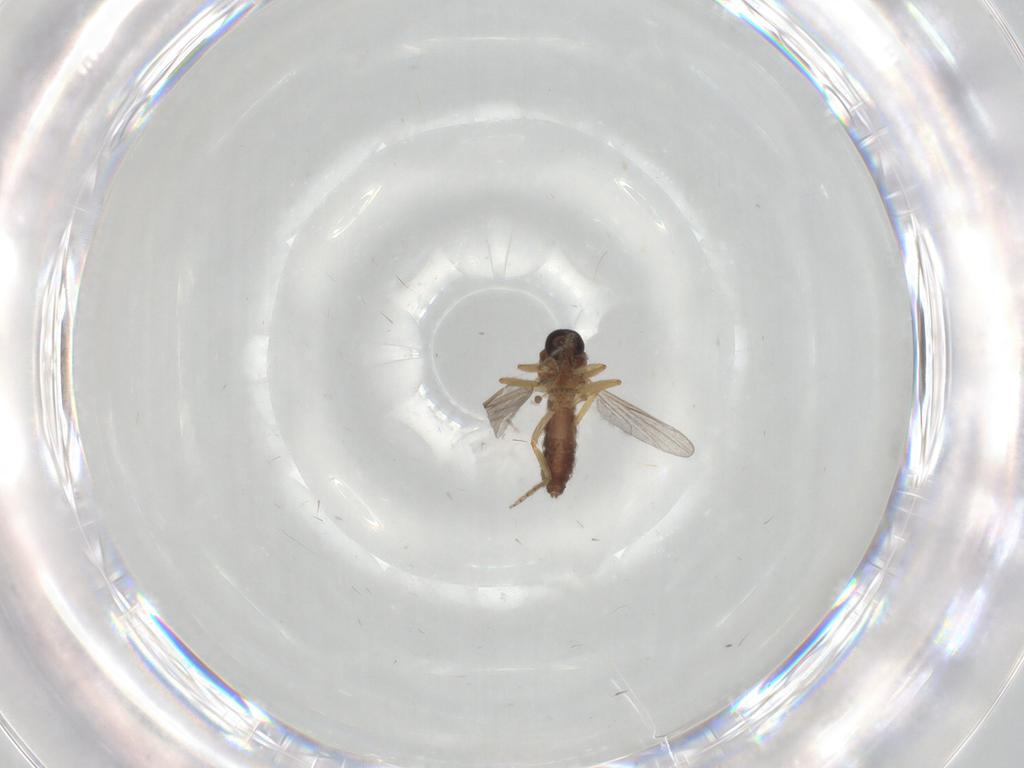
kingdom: Animalia
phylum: Arthropoda
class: Insecta
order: Diptera
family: Ceratopogonidae
